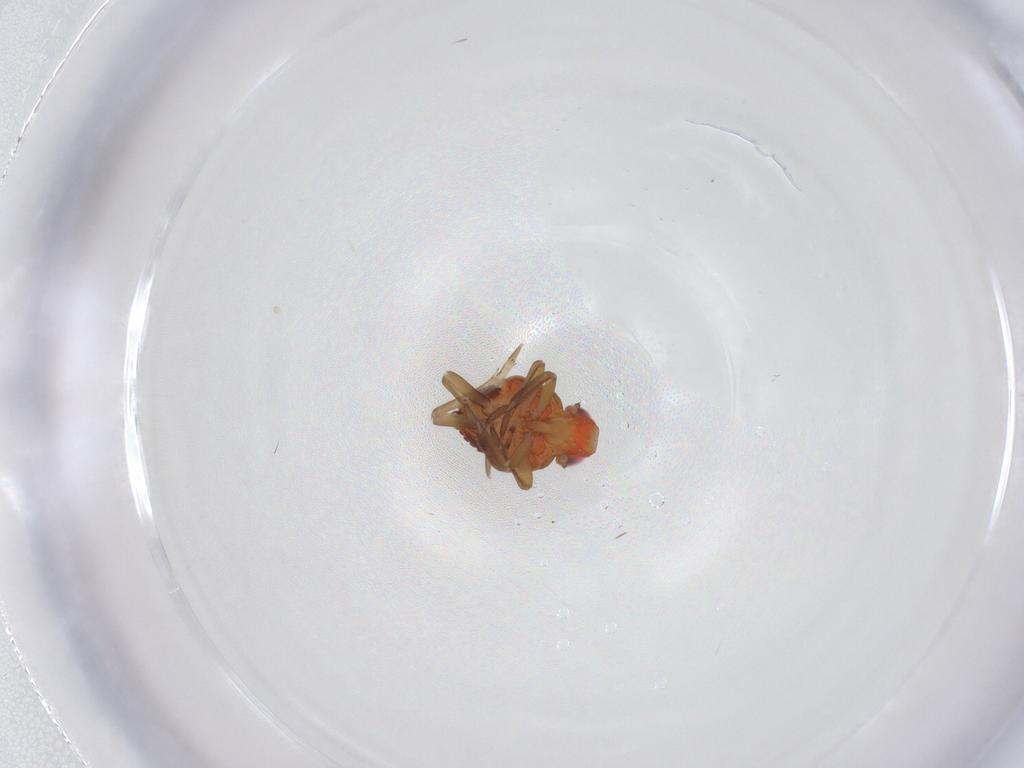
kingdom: Animalia
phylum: Arthropoda
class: Insecta
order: Hemiptera
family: Fulgoroidea_incertae_sedis
